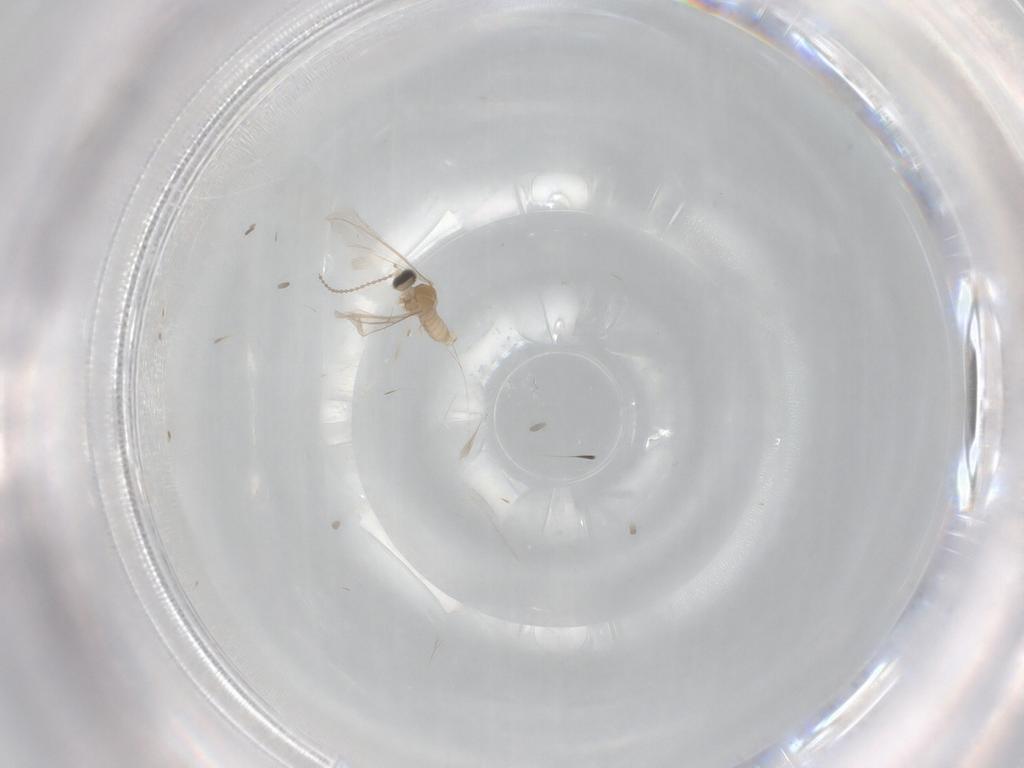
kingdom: Animalia
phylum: Arthropoda
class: Insecta
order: Diptera
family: Cecidomyiidae
